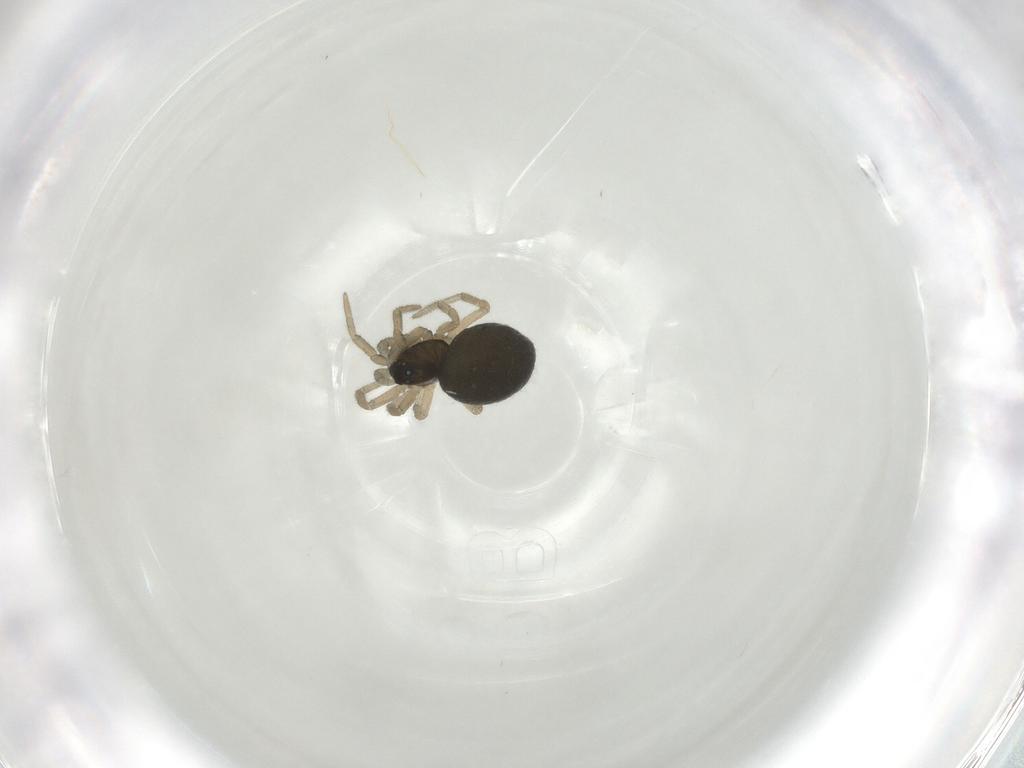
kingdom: Animalia
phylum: Arthropoda
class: Arachnida
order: Araneae
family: Linyphiidae
